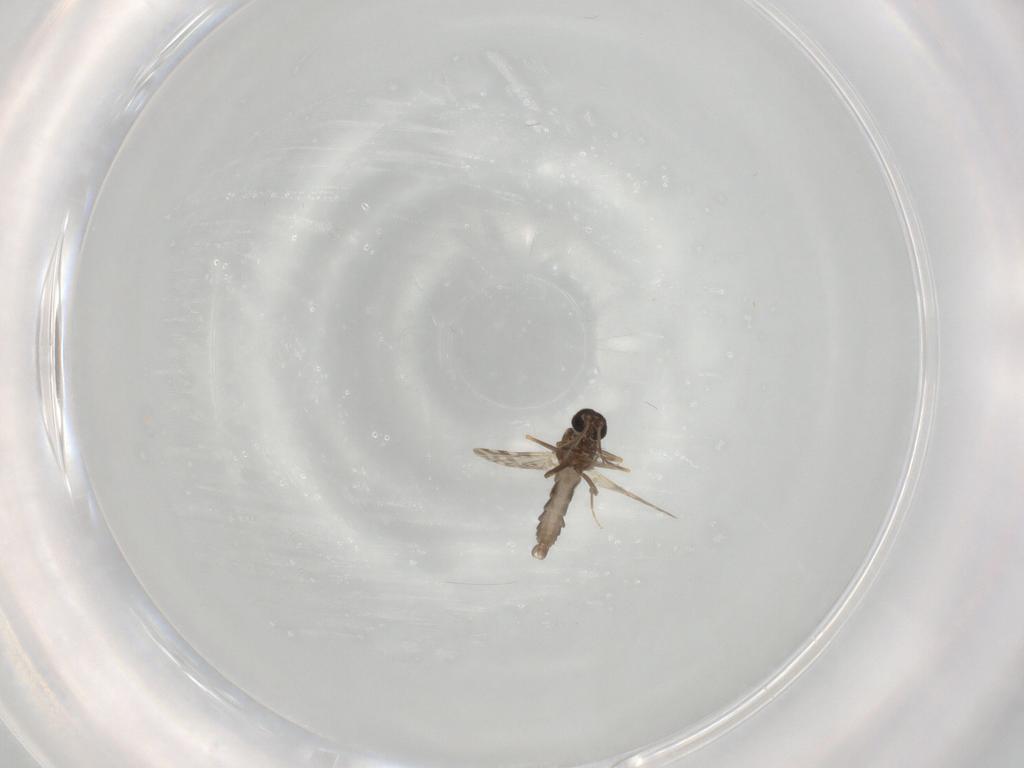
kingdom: Animalia
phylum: Arthropoda
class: Insecta
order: Diptera
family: Ceratopogonidae
